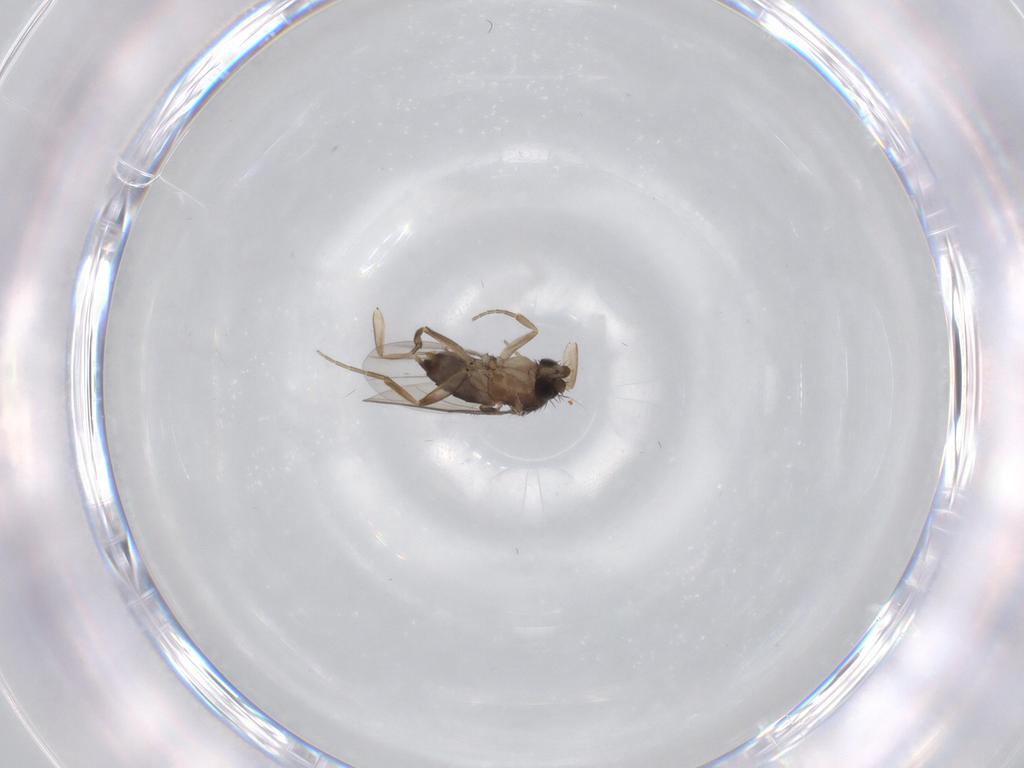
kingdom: Animalia
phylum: Arthropoda
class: Insecta
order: Diptera
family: Phoridae
